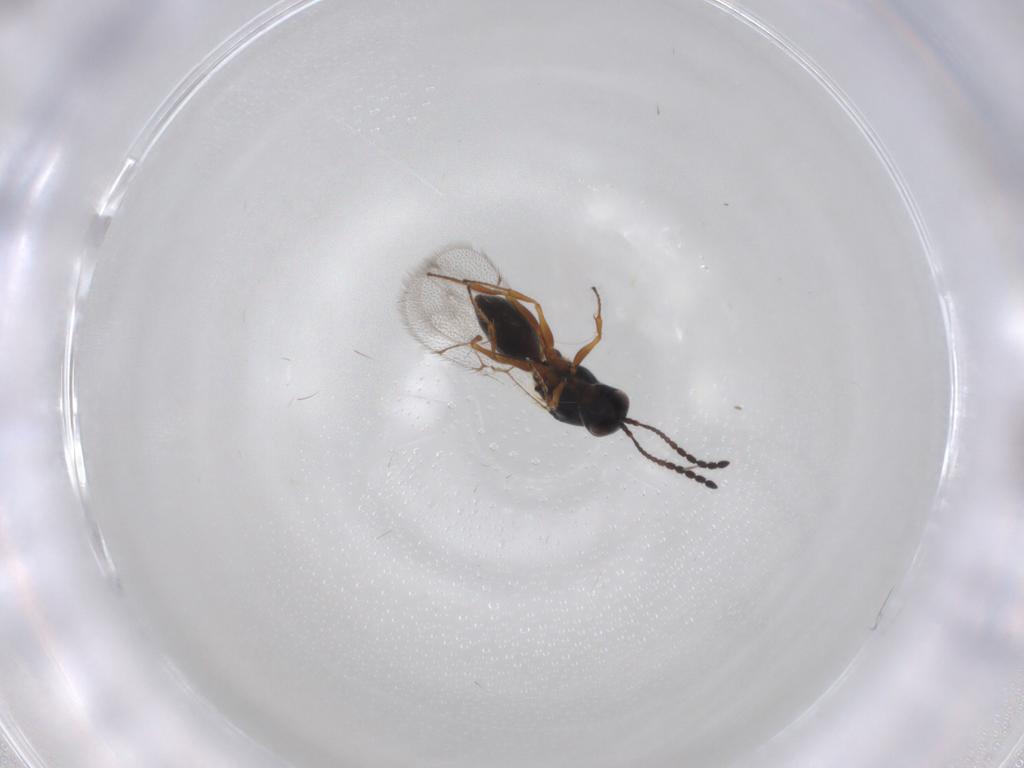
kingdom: Animalia
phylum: Arthropoda
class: Insecta
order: Hymenoptera
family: Figitidae
